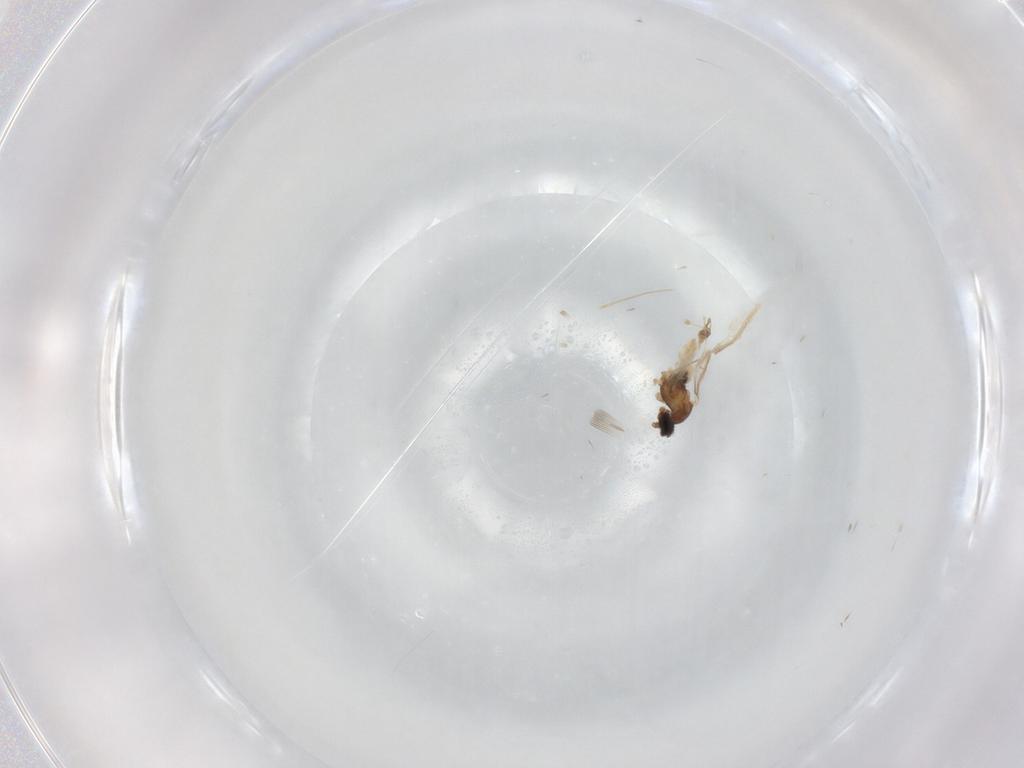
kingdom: Animalia
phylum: Arthropoda
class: Insecta
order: Diptera
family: Cecidomyiidae
